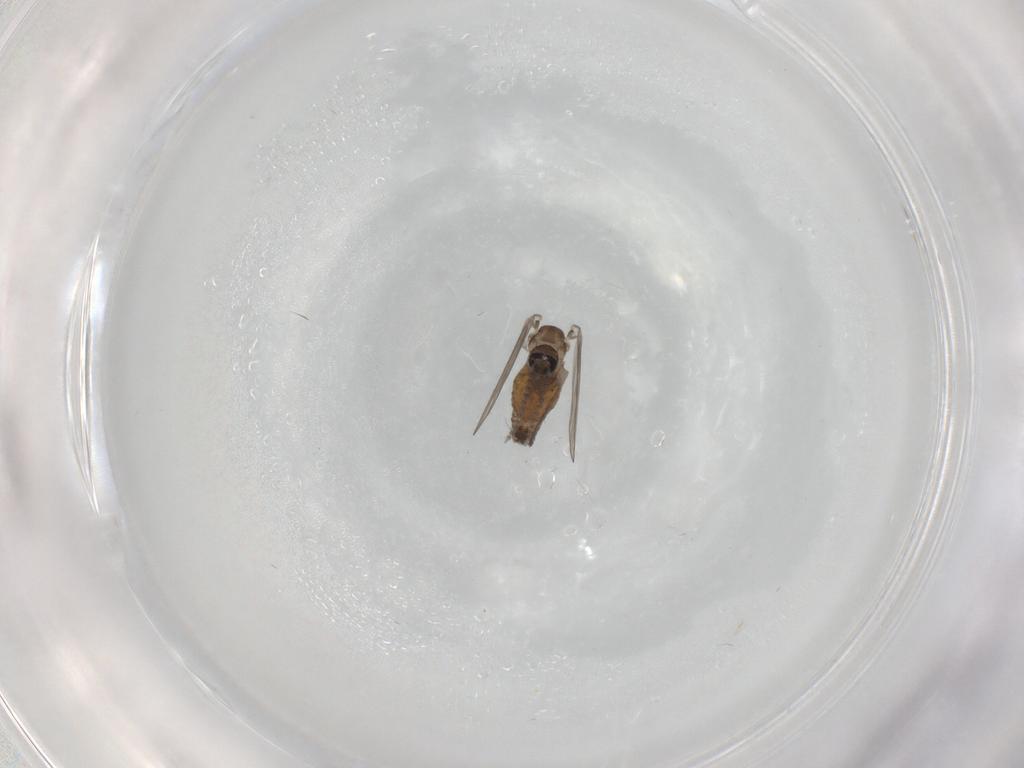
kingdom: Animalia
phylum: Arthropoda
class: Insecta
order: Diptera
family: Psychodidae
